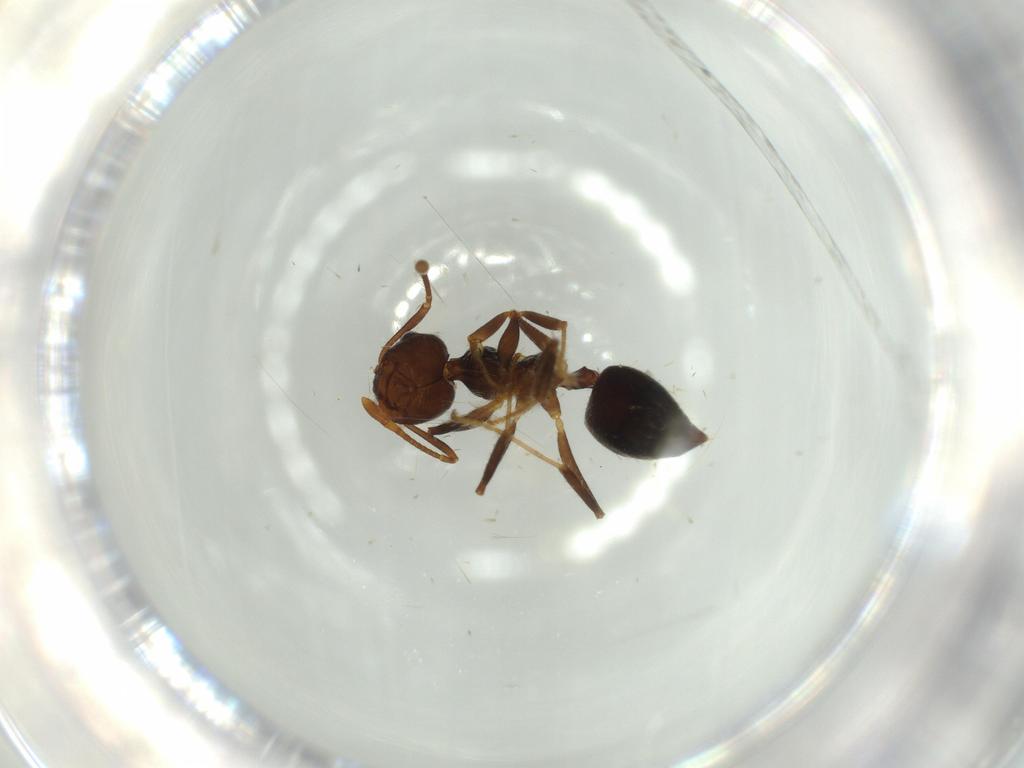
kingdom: Animalia
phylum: Arthropoda
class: Insecta
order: Hymenoptera
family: Formicidae
